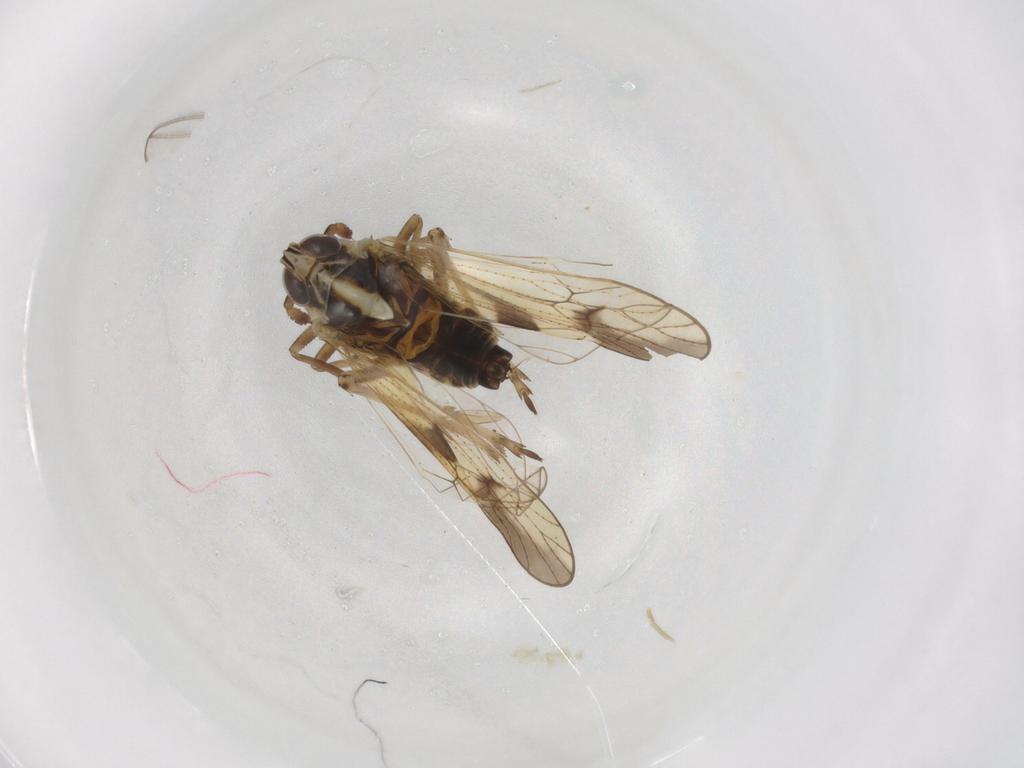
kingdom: Animalia
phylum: Arthropoda
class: Insecta
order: Hemiptera
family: Delphacidae
